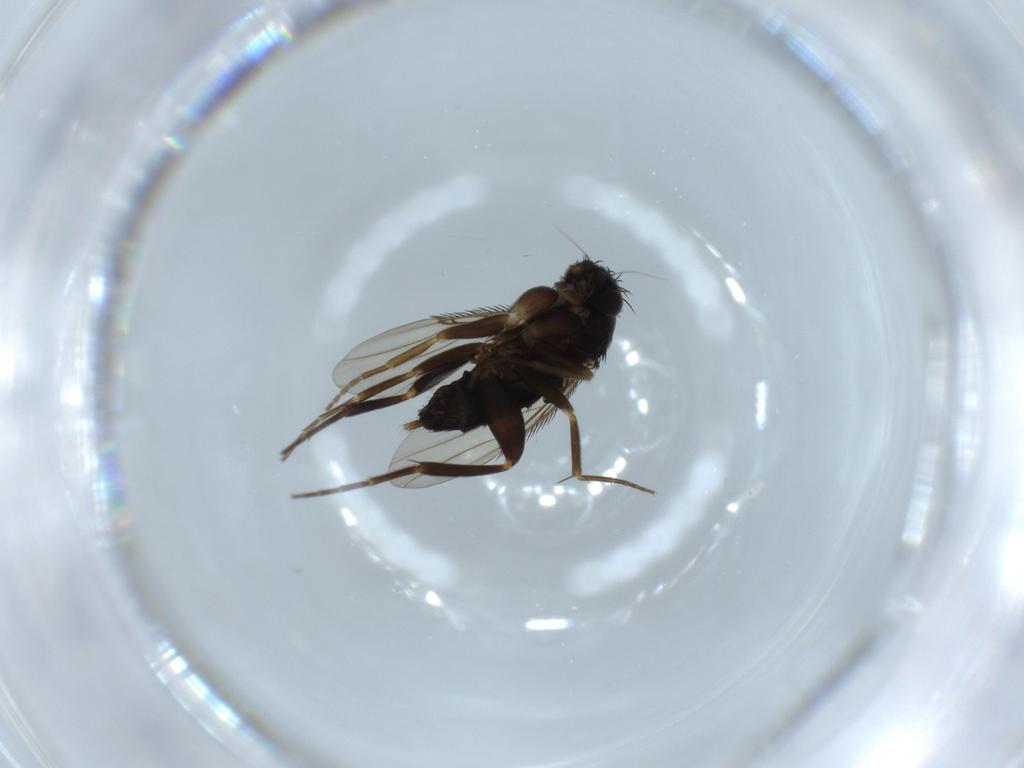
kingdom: Animalia
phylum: Arthropoda
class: Insecta
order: Diptera
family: Phoridae
